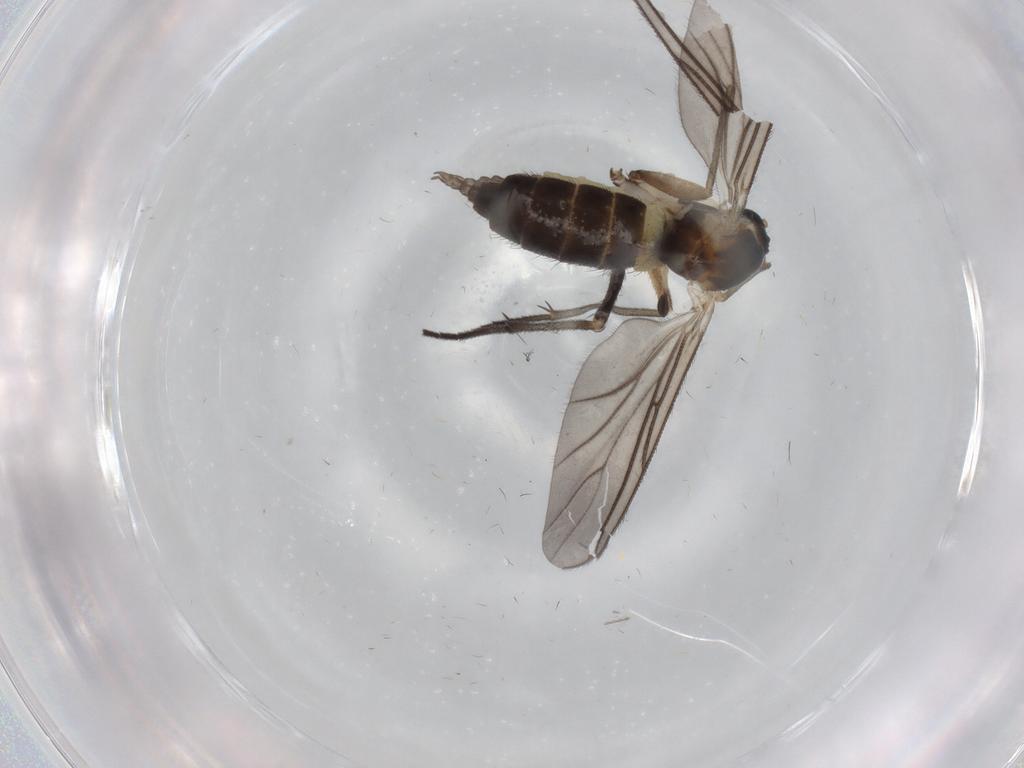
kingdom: Animalia
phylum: Arthropoda
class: Insecta
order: Diptera
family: Sciaridae
